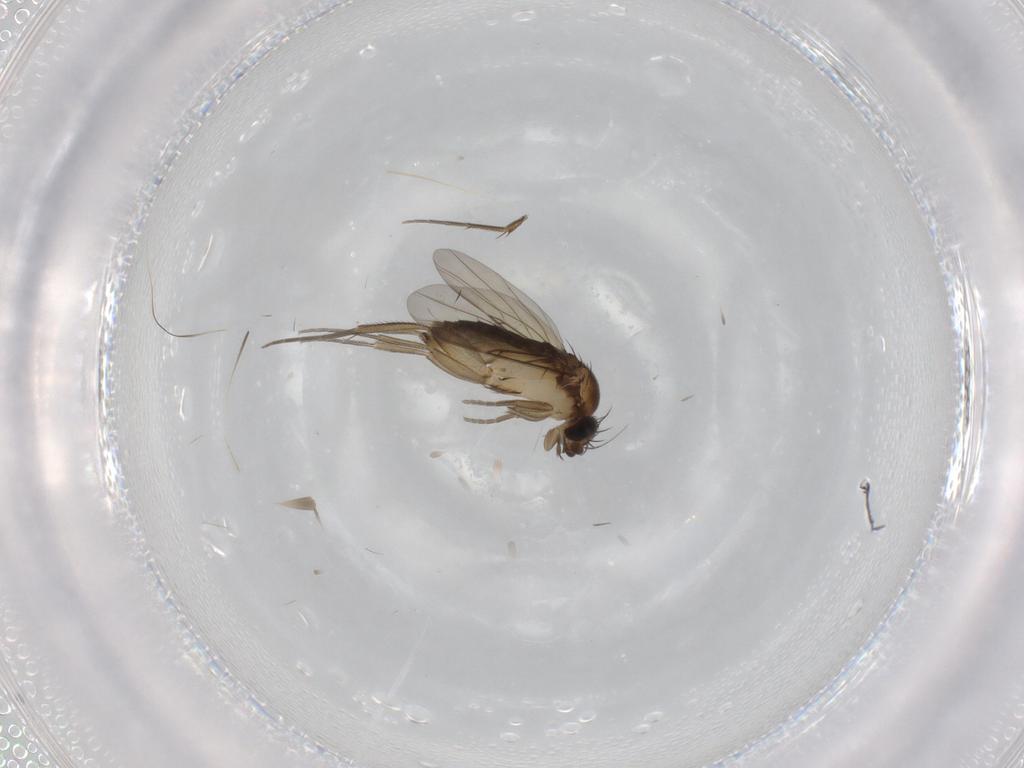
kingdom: Animalia
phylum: Arthropoda
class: Insecta
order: Diptera
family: Phoridae
